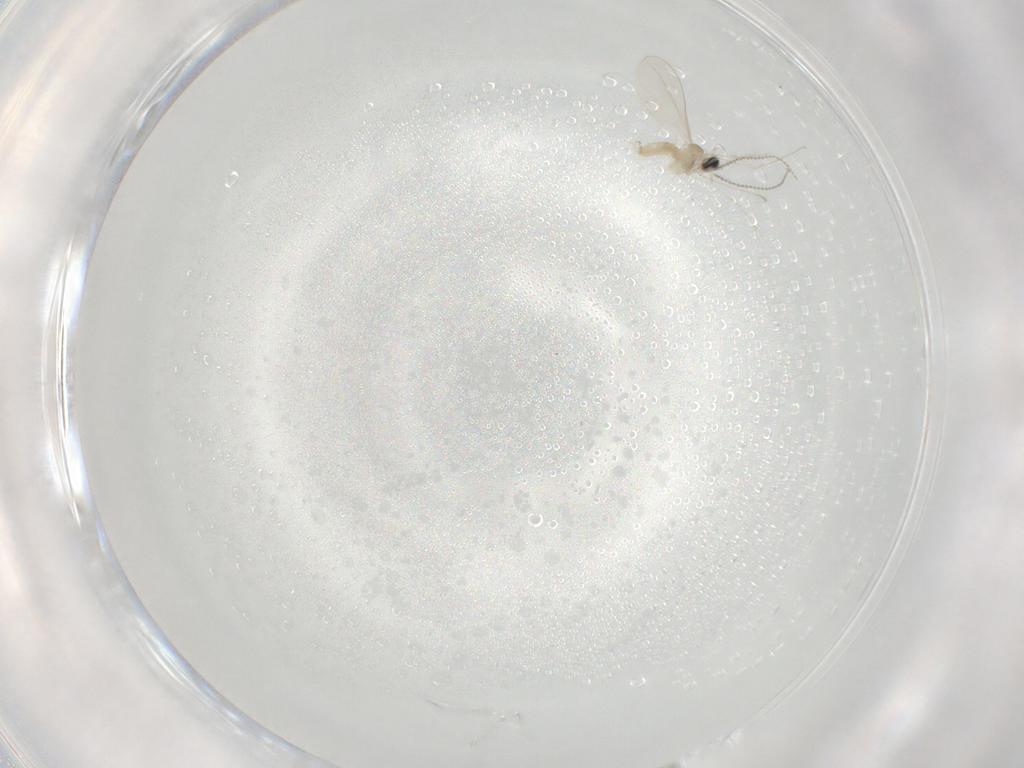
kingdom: Animalia
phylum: Arthropoda
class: Insecta
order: Diptera
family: Cecidomyiidae
